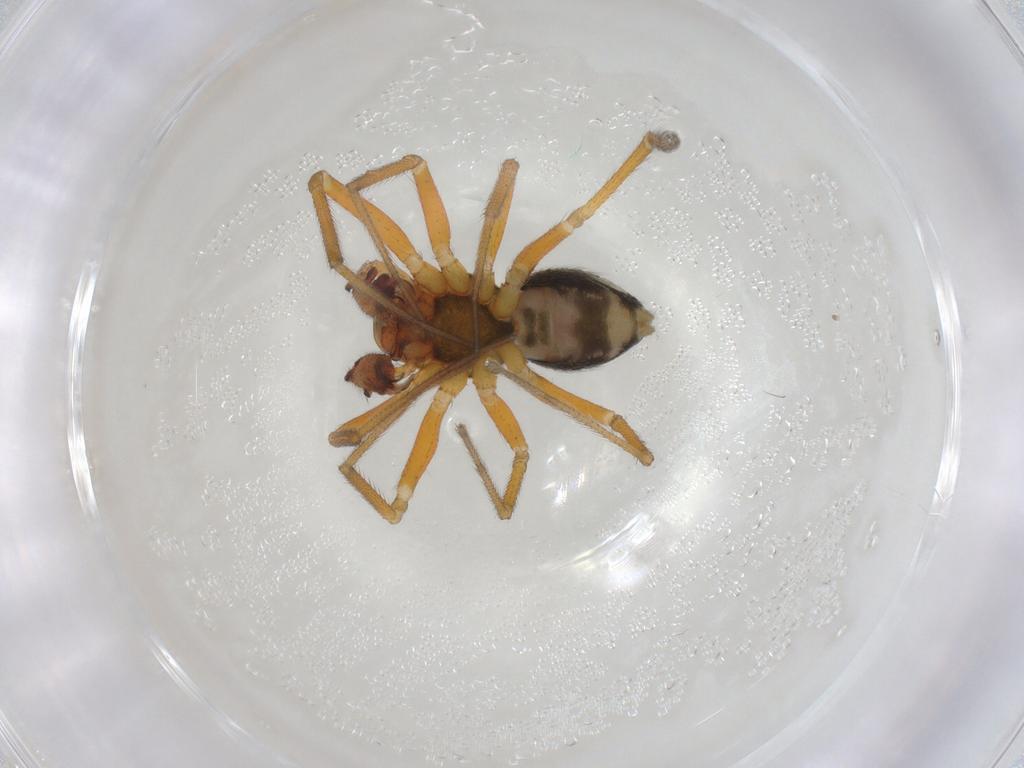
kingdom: Animalia
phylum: Arthropoda
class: Arachnida
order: Araneae
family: Linyphiidae
